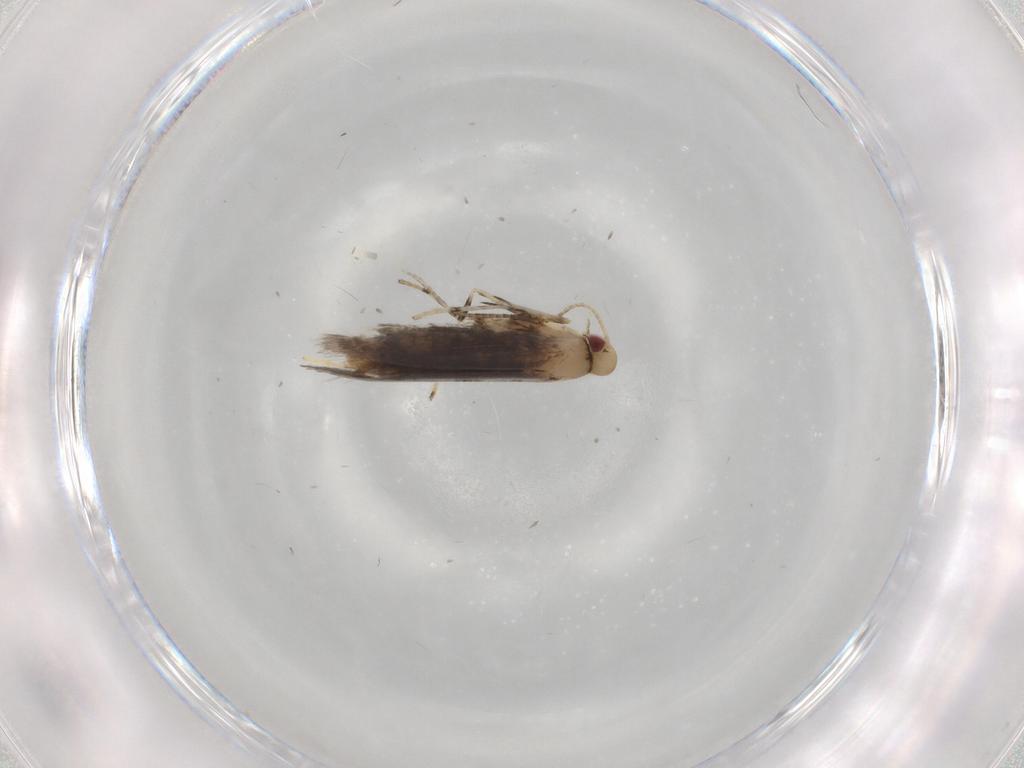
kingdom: Animalia
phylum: Arthropoda
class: Insecta
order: Lepidoptera
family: Gracillariidae
